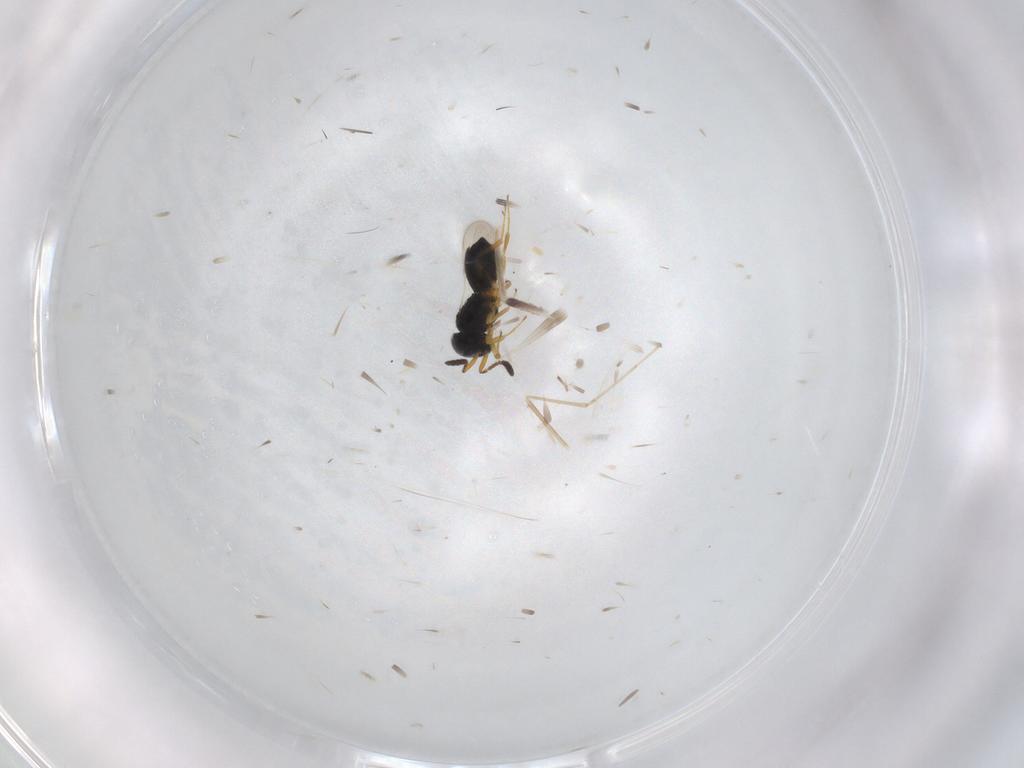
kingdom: Animalia
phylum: Arthropoda
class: Insecta
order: Hymenoptera
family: Scelionidae
